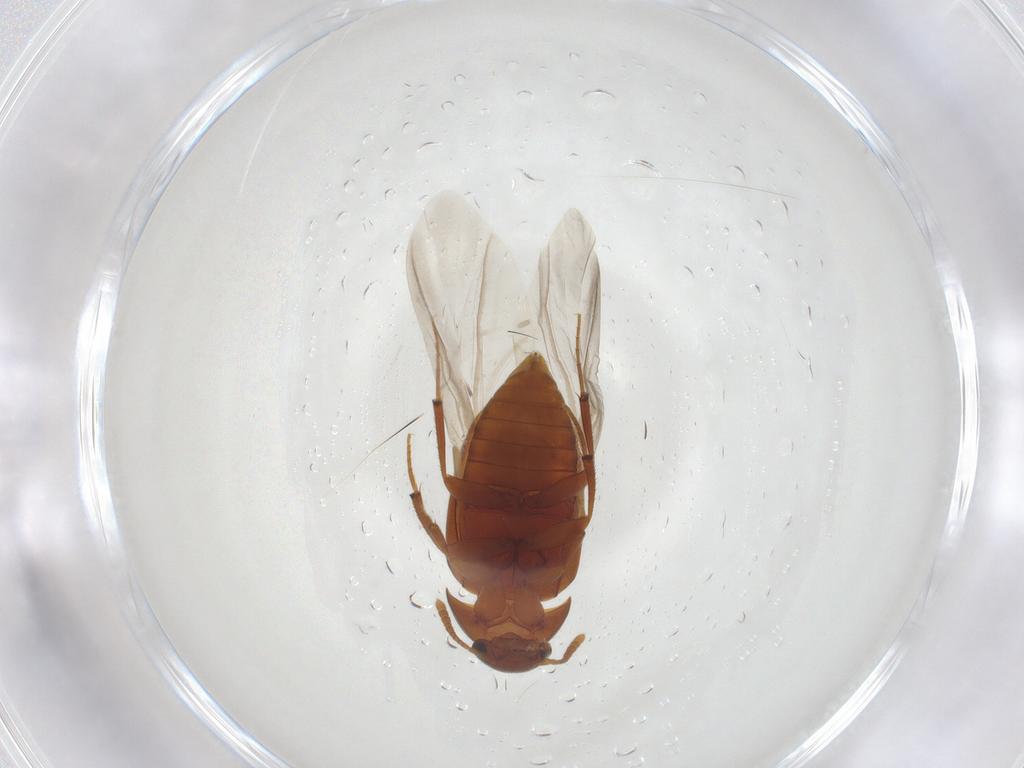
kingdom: Animalia
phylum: Arthropoda
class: Insecta
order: Coleoptera
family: Leiodidae
